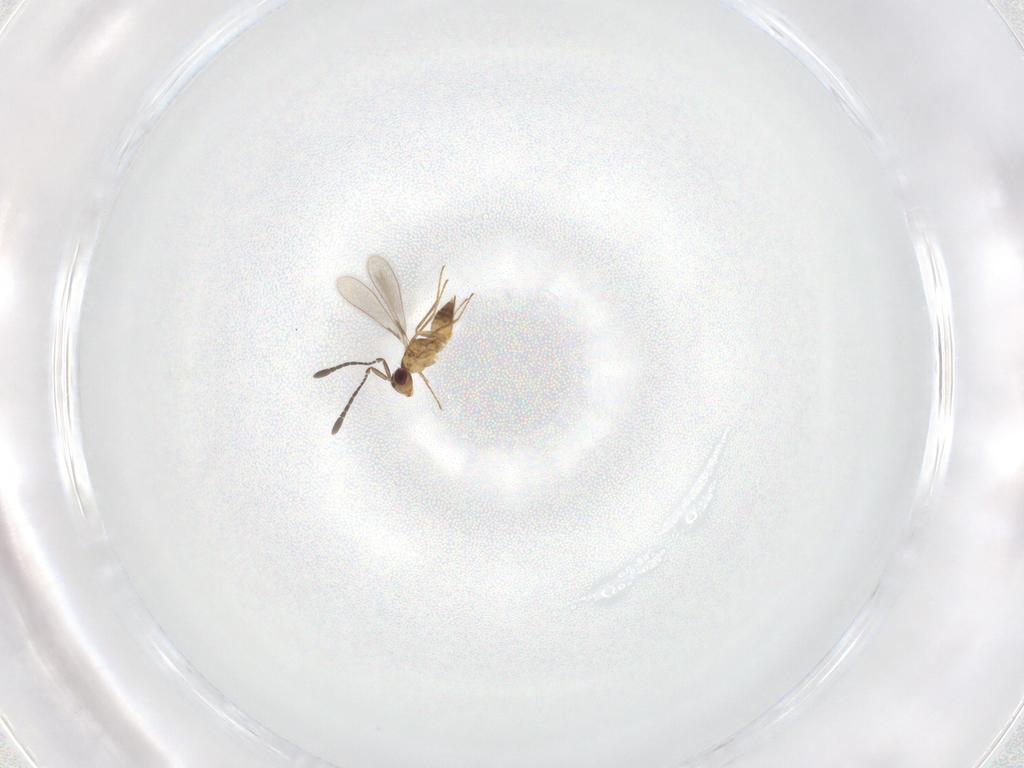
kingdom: Animalia
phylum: Arthropoda
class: Insecta
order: Hymenoptera
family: Mymaridae
